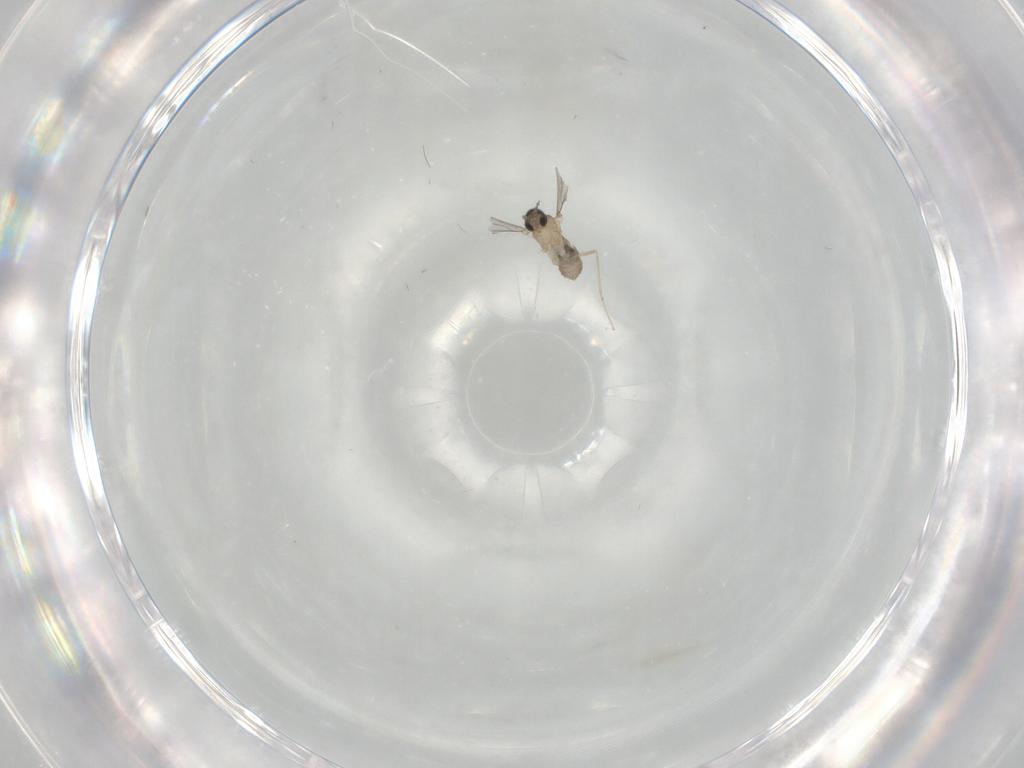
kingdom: Animalia
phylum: Arthropoda
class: Insecta
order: Diptera
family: Cecidomyiidae
